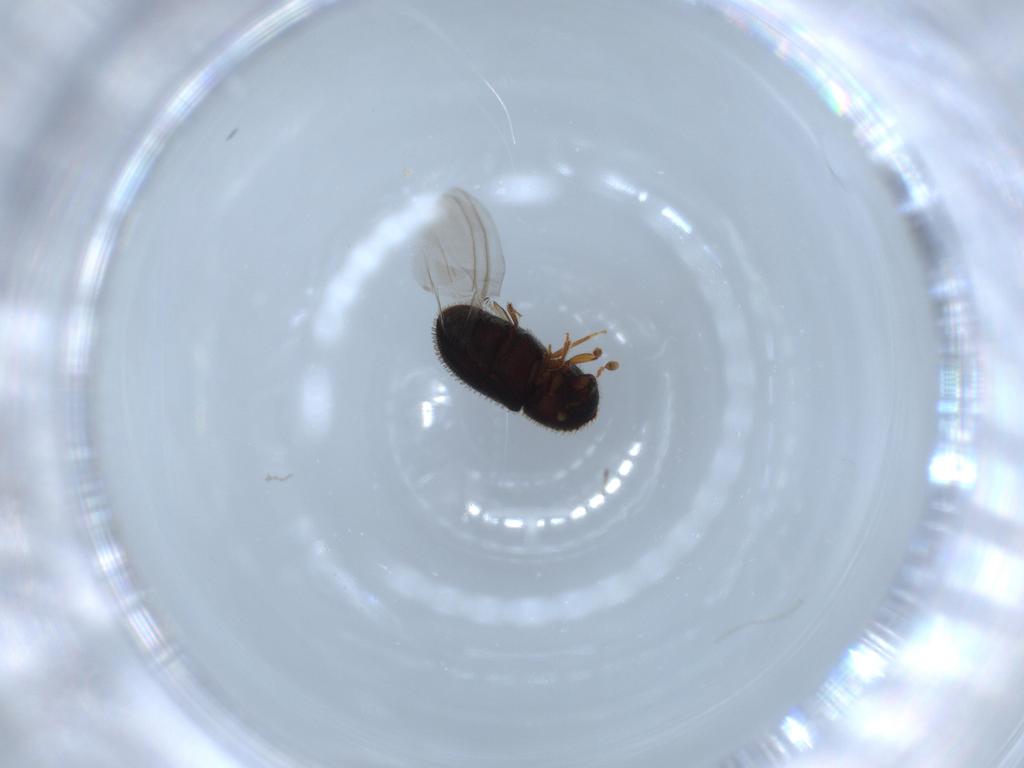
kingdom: Animalia
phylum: Arthropoda
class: Insecta
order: Coleoptera
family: Curculionidae
